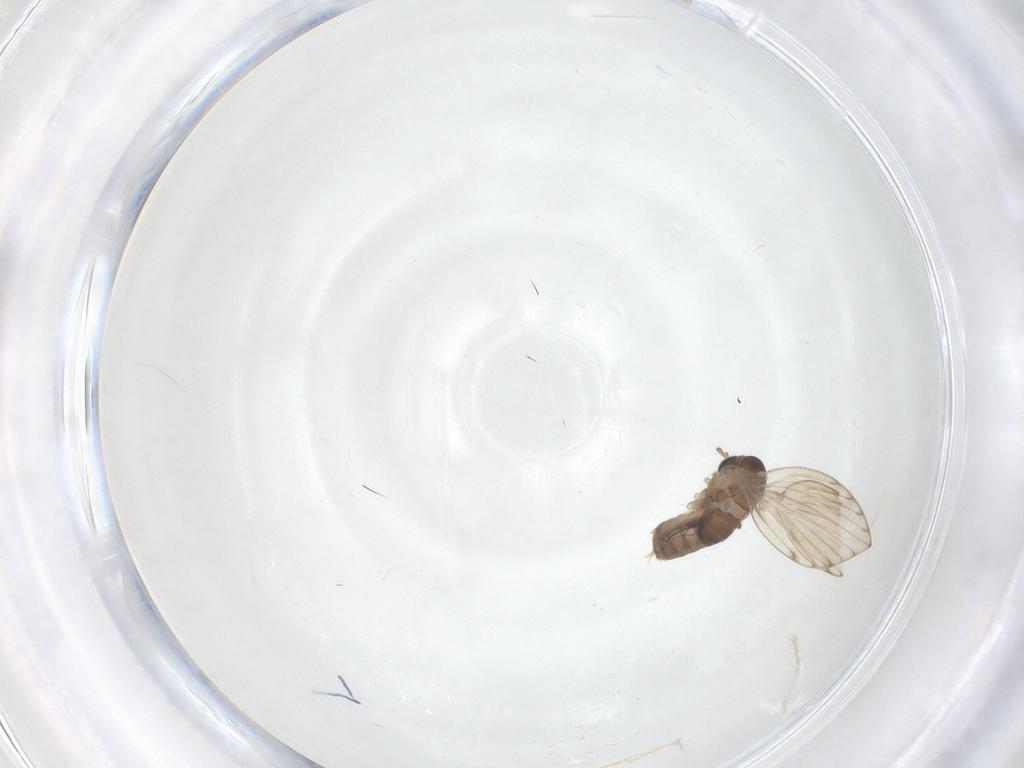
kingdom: Animalia
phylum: Arthropoda
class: Insecta
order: Diptera
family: Psychodidae
